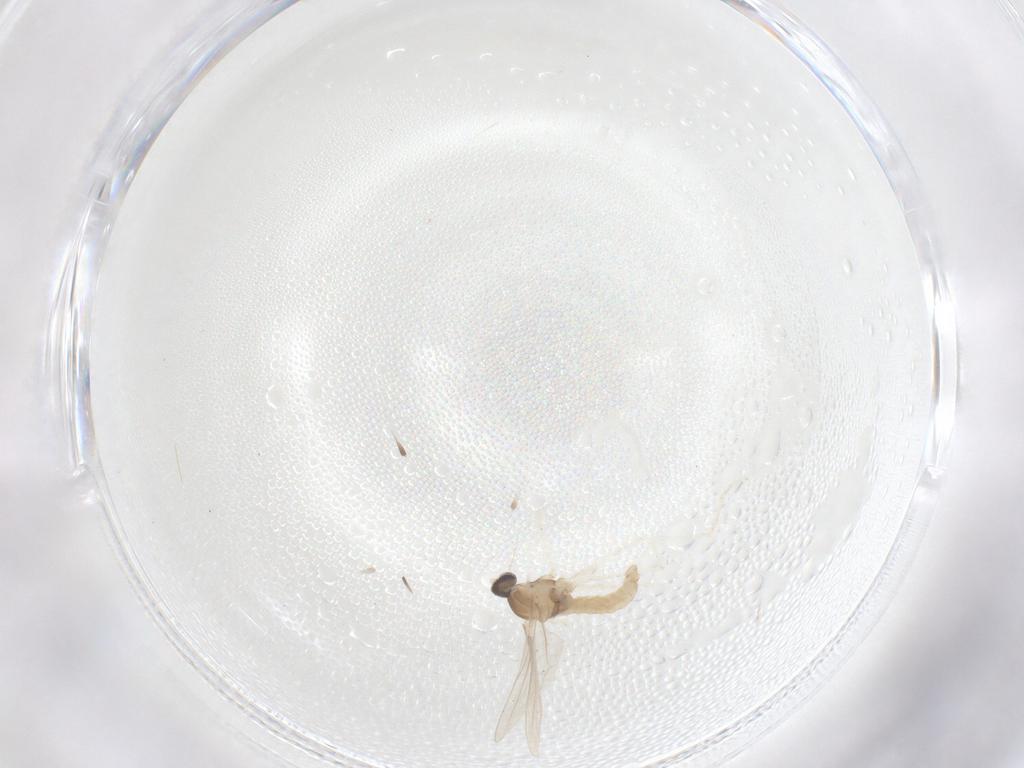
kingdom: Animalia
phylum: Arthropoda
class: Insecta
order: Diptera
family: Cecidomyiidae
